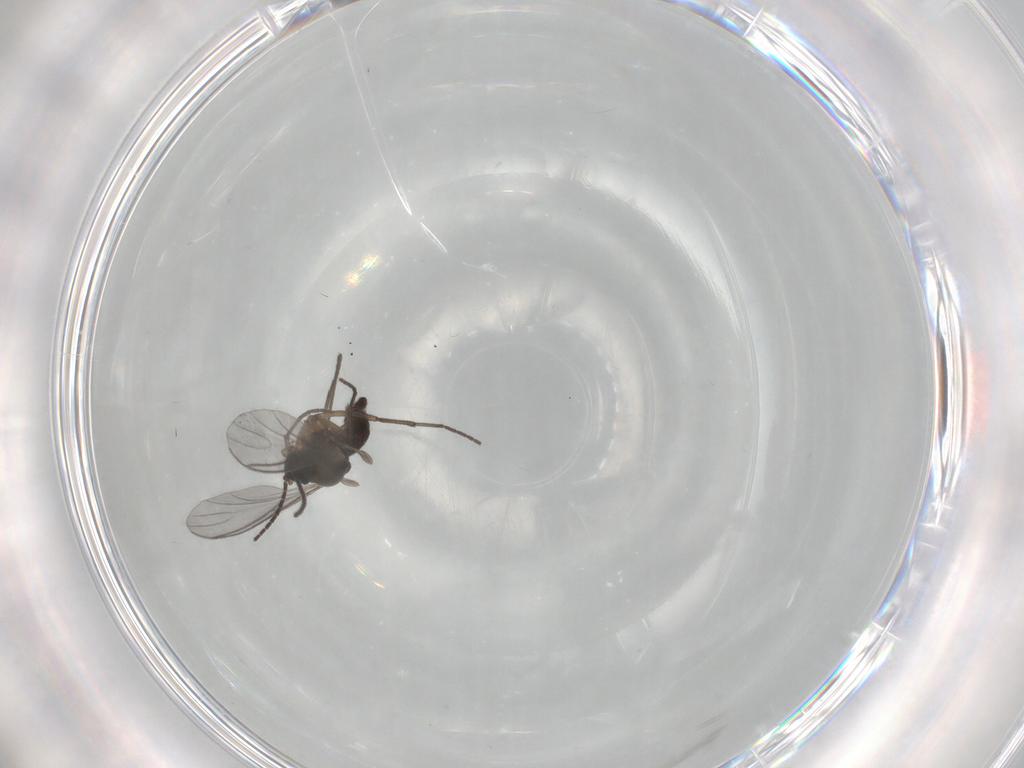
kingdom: Animalia
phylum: Arthropoda
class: Insecta
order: Diptera
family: Sciaridae
